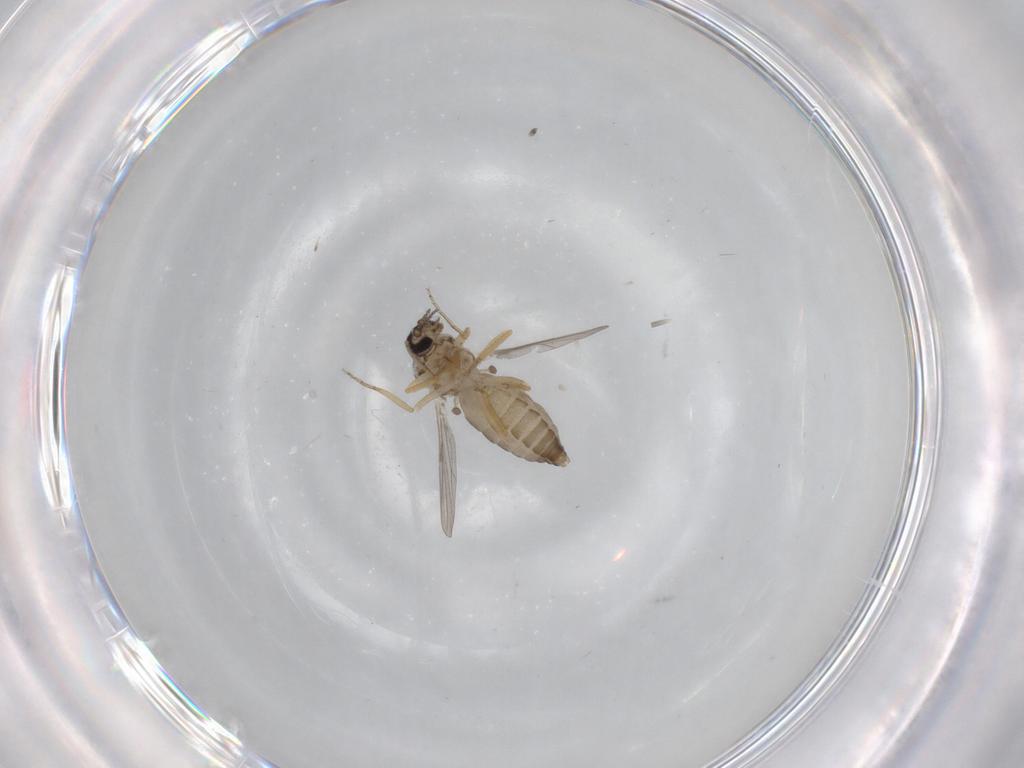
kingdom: Animalia
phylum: Arthropoda
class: Insecta
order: Diptera
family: Ceratopogonidae
